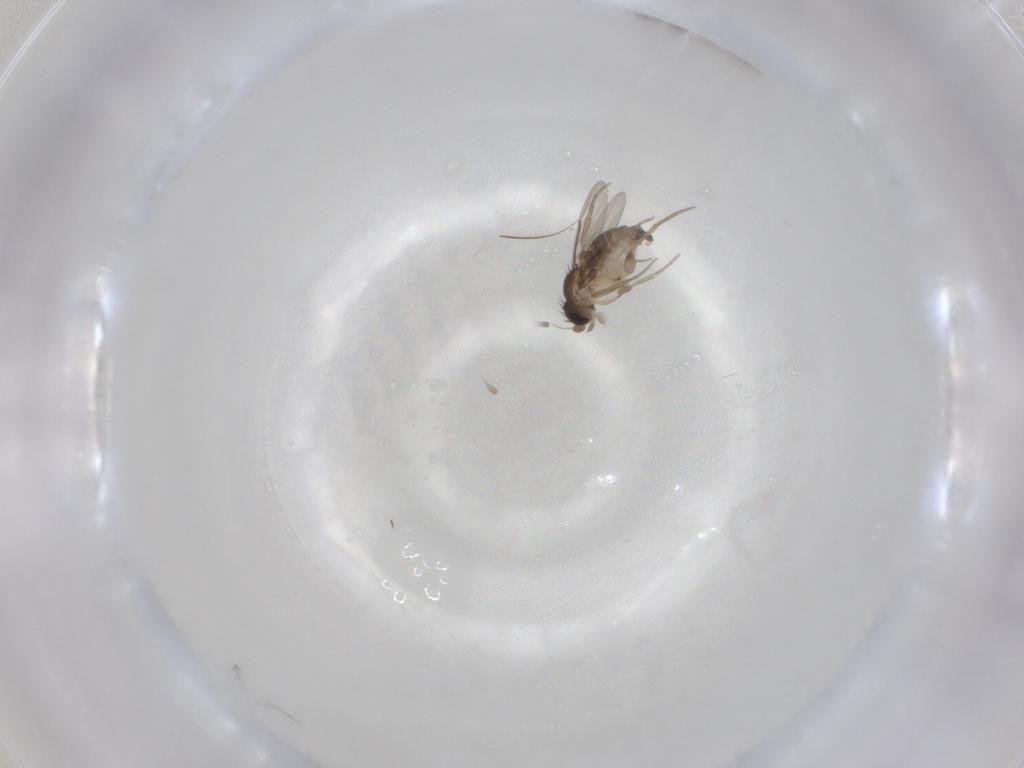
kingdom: Animalia
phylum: Arthropoda
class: Insecta
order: Diptera
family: Phoridae
